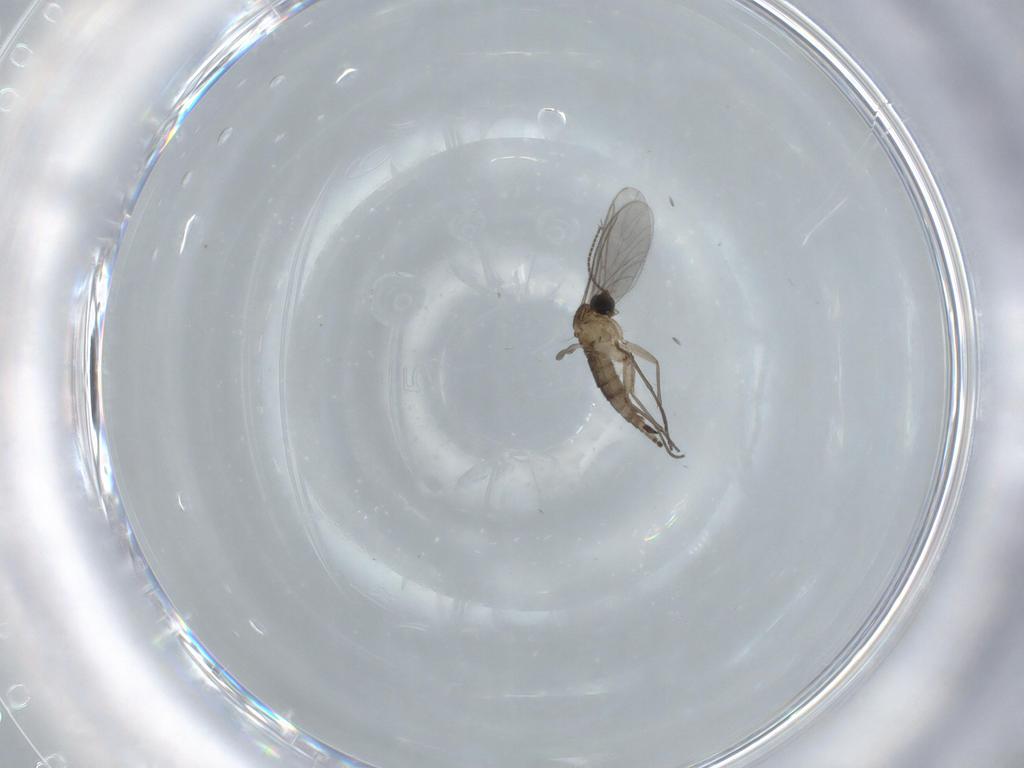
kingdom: Animalia
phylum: Arthropoda
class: Insecta
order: Diptera
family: Sciaridae
